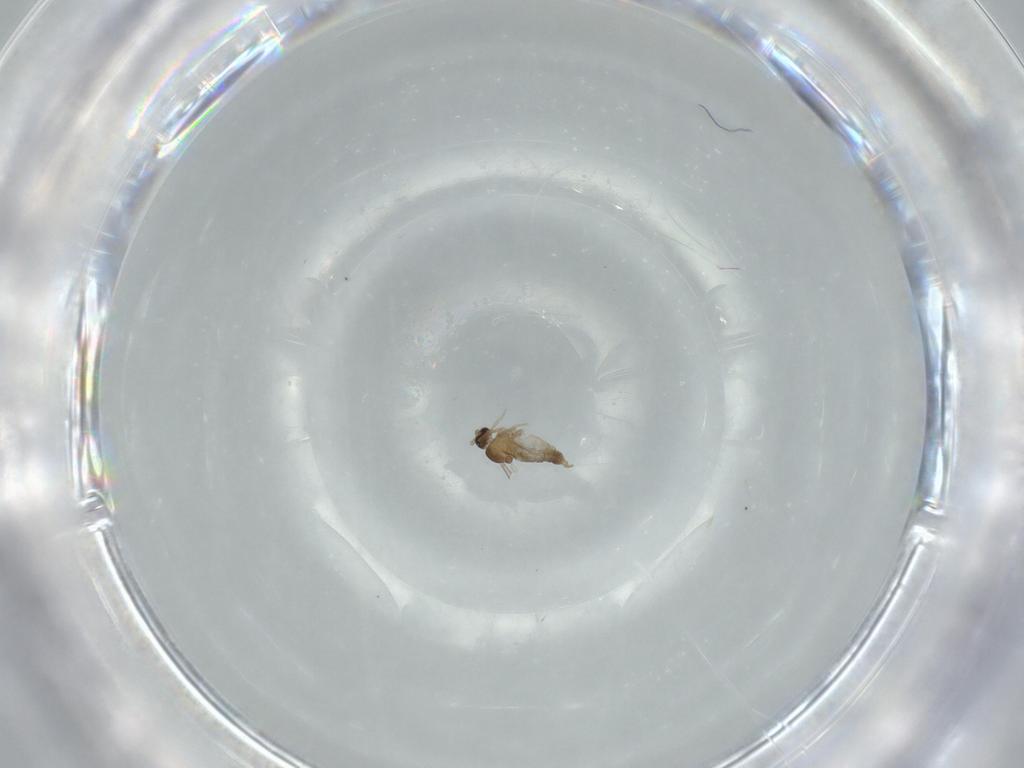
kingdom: Animalia
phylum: Arthropoda
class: Insecta
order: Diptera
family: Cecidomyiidae
